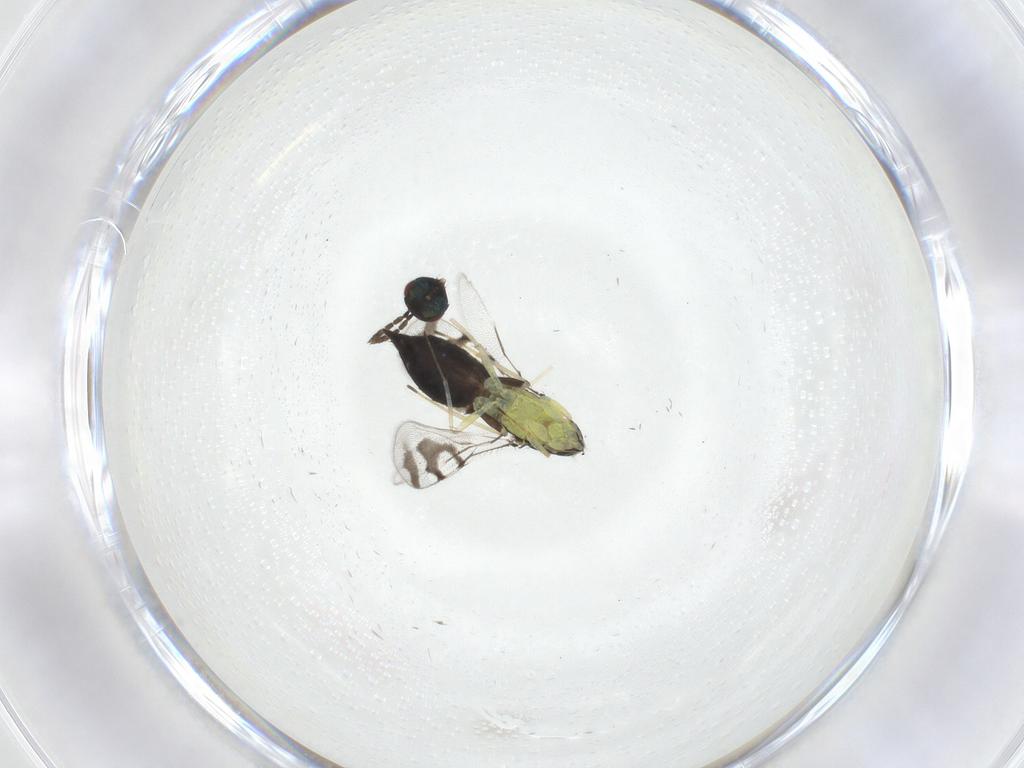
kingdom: Animalia
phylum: Arthropoda
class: Insecta
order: Hymenoptera
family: Eulophidae
